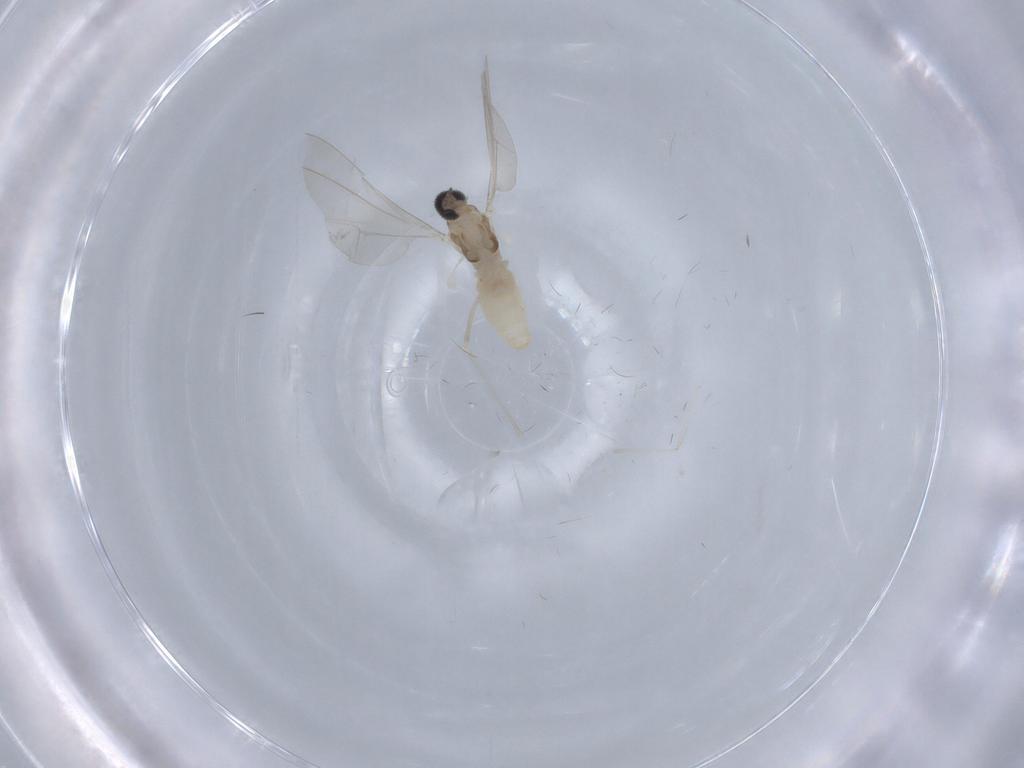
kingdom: Animalia
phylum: Arthropoda
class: Insecta
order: Diptera
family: Cecidomyiidae
